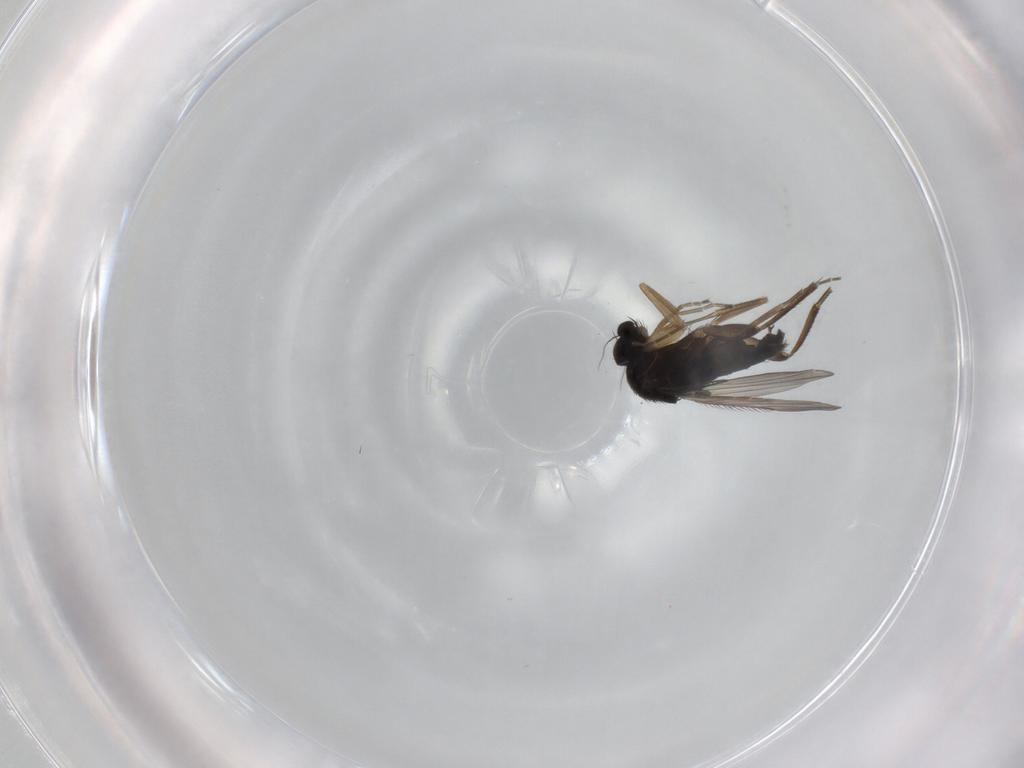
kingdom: Animalia
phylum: Arthropoda
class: Insecta
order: Diptera
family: Phoridae
